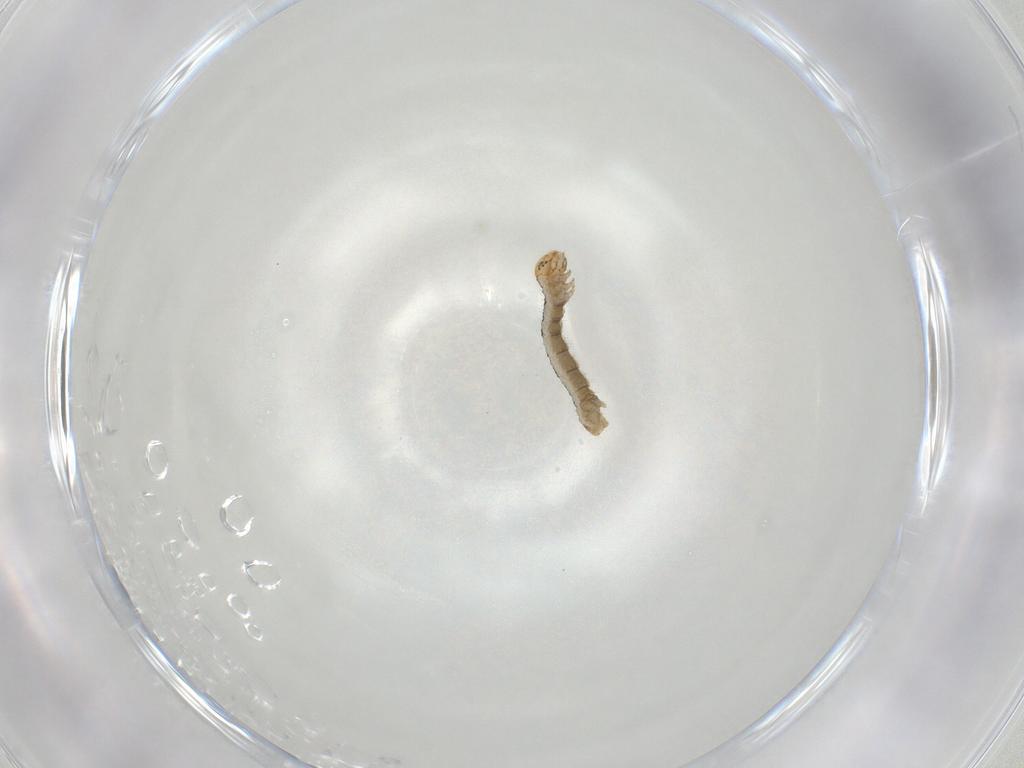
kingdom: Animalia
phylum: Arthropoda
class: Insecta
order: Lepidoptera
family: Geometridae
